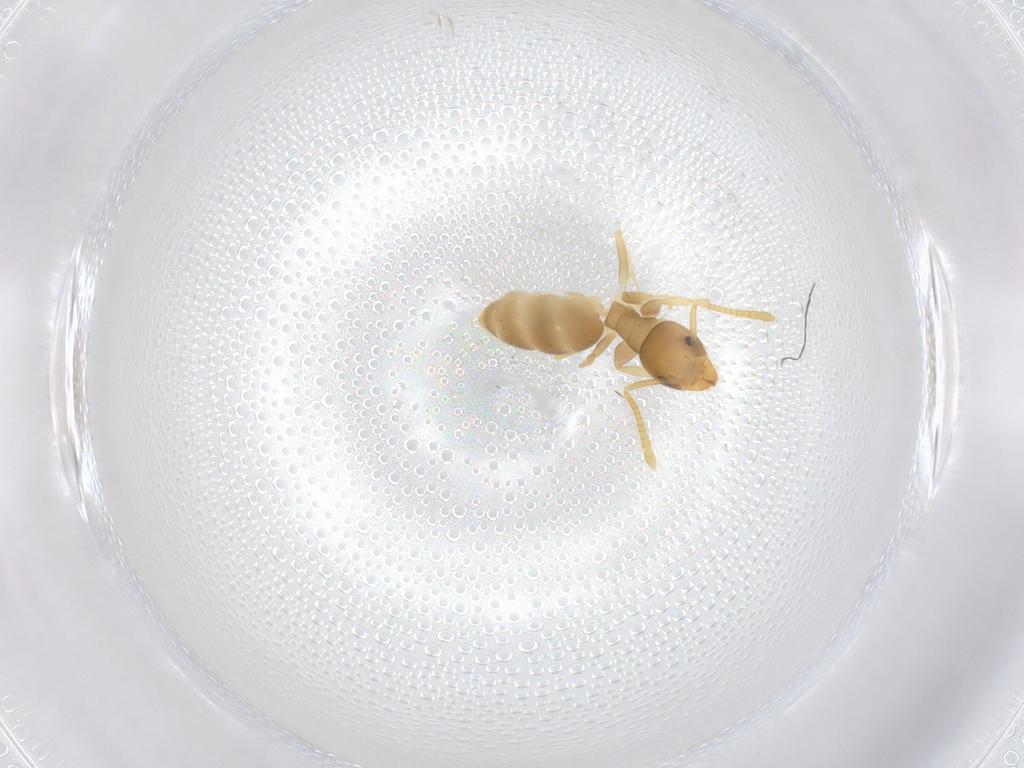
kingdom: Animalia
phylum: Arthropoda
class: Insecta
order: Hymenoptera
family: Formicidae
